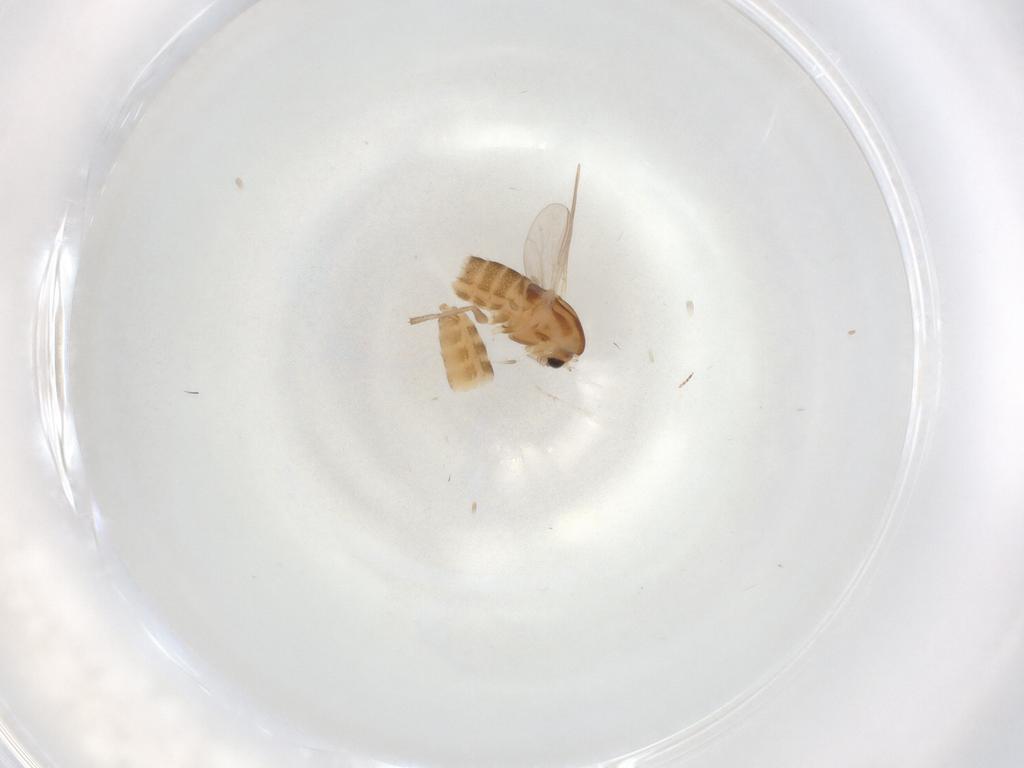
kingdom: Animalia
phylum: Arthropoda
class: Insecta
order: Diptera
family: Chironomidae
